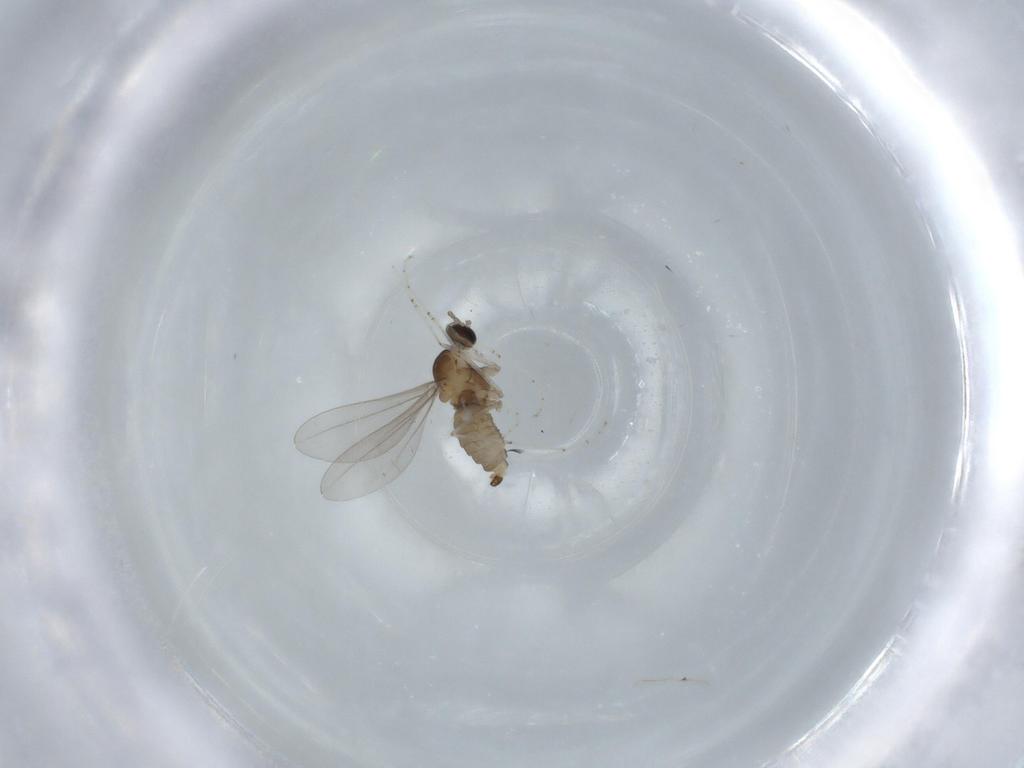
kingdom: Animalia
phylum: Arthropoda
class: Insecta
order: Diptera
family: Cecidomyiidae
